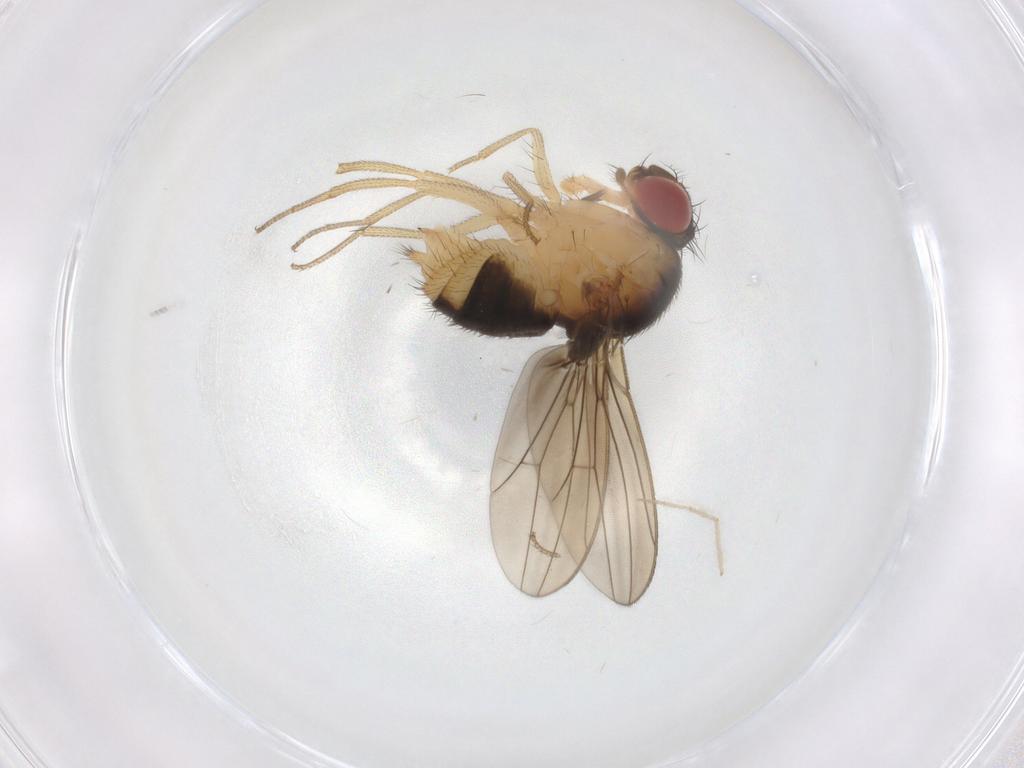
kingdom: Animalia
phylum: Arthropoda
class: Insecta
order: Diptera
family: Drosophilidae
